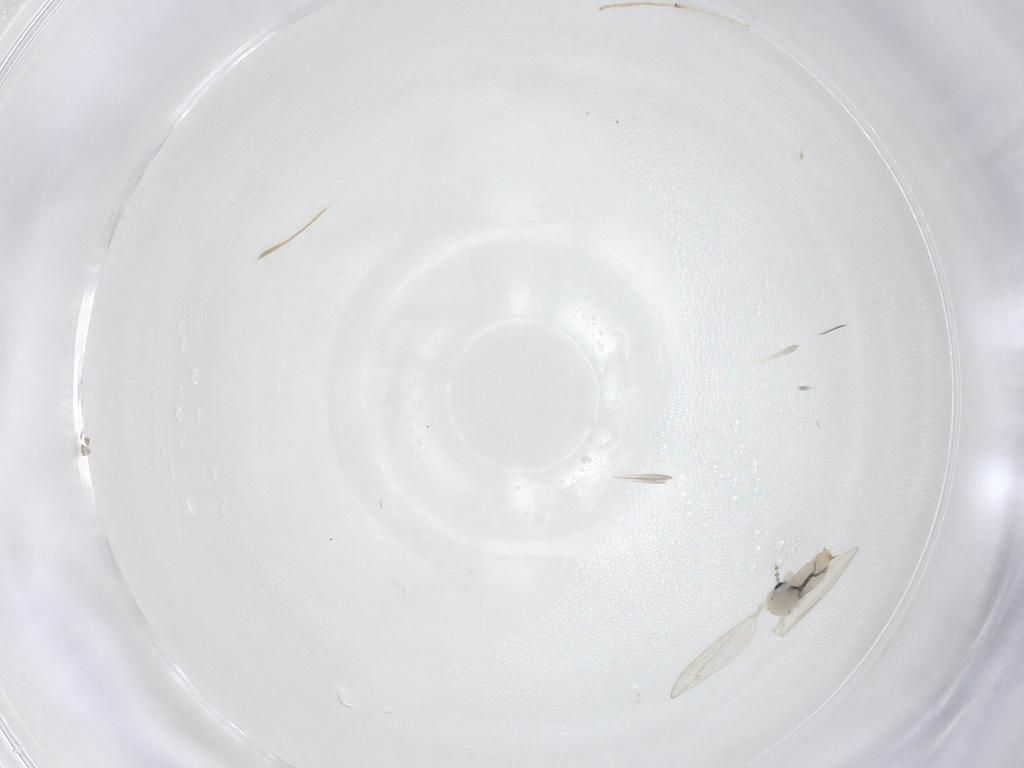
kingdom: Animalia
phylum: Arthropoda
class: Insecta
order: Diptera
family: Psychodidae
